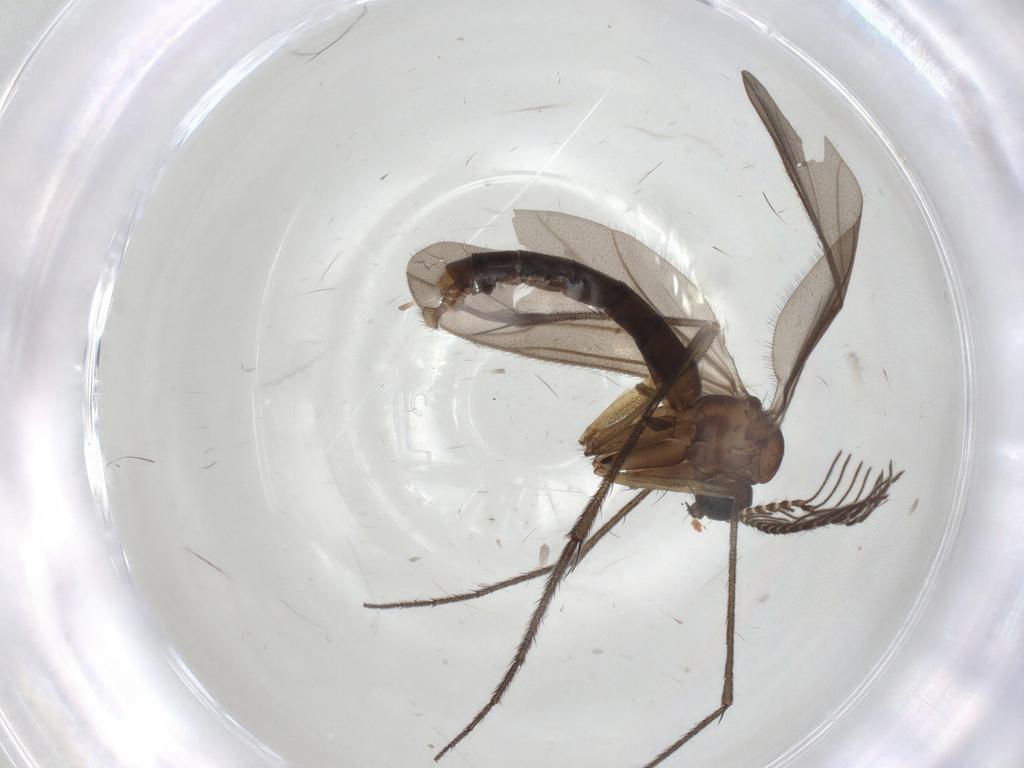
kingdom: Animalia
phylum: Arthropoda
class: Insecta
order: Diptera
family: Ditomyiidae
